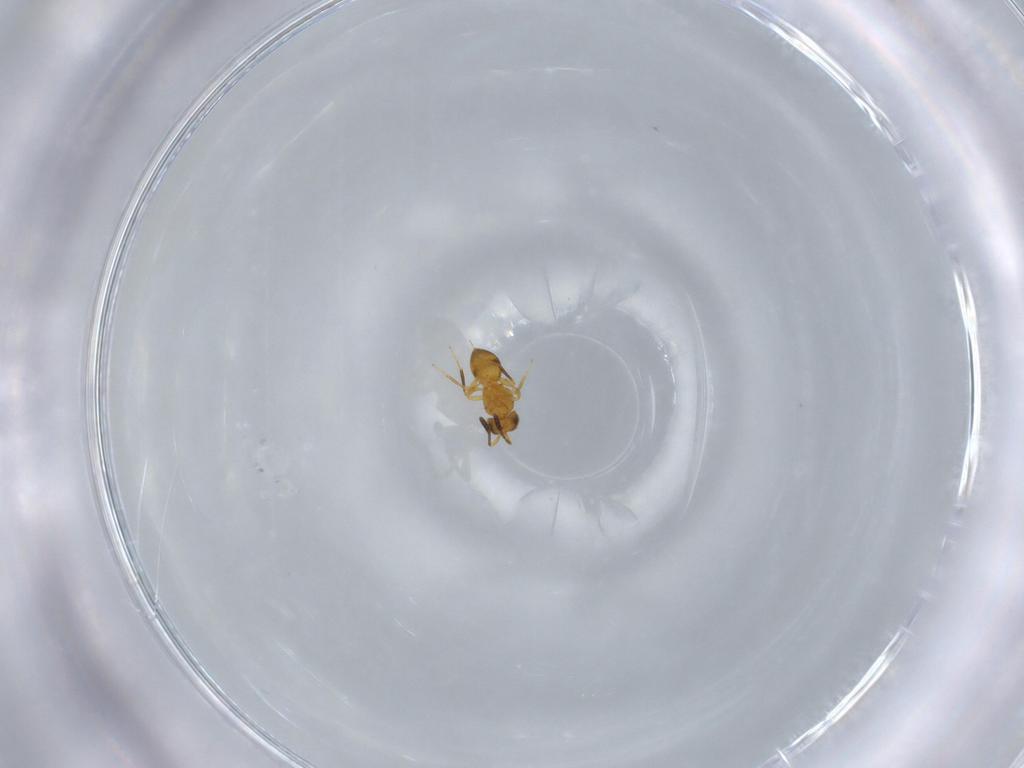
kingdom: Animalia
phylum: Arthropoda
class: Insecta
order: Hymenoptera
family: Scelionidae
